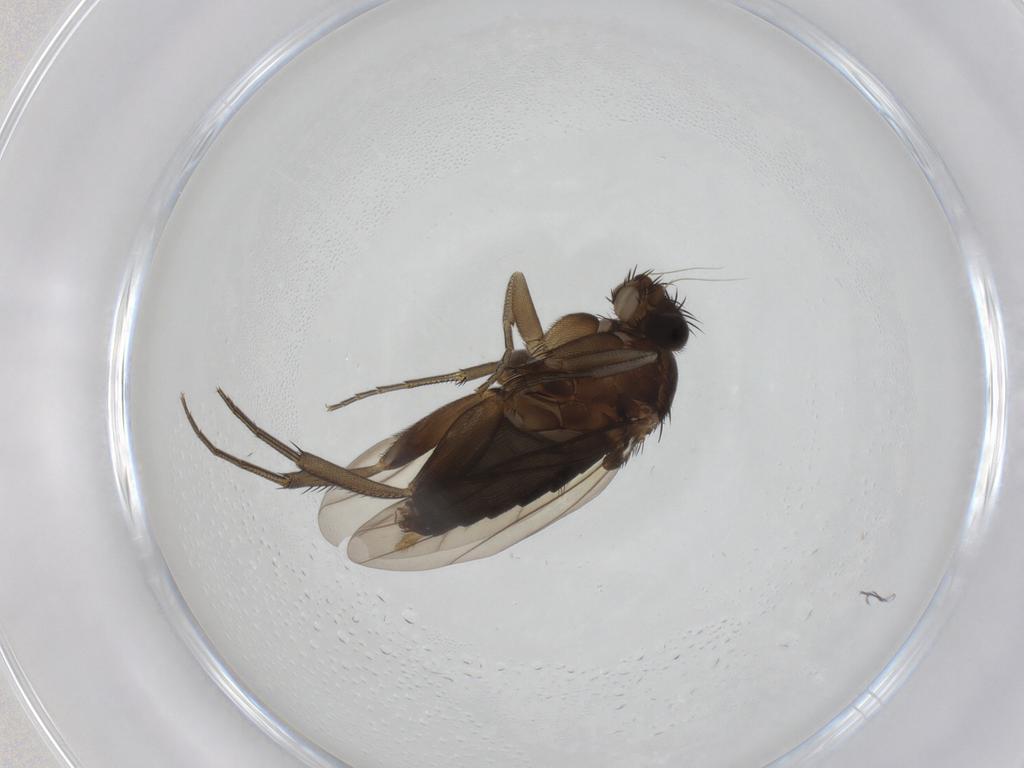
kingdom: Animalia
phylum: Arthropoda
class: Insecta
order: Diptera
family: Phoridae
